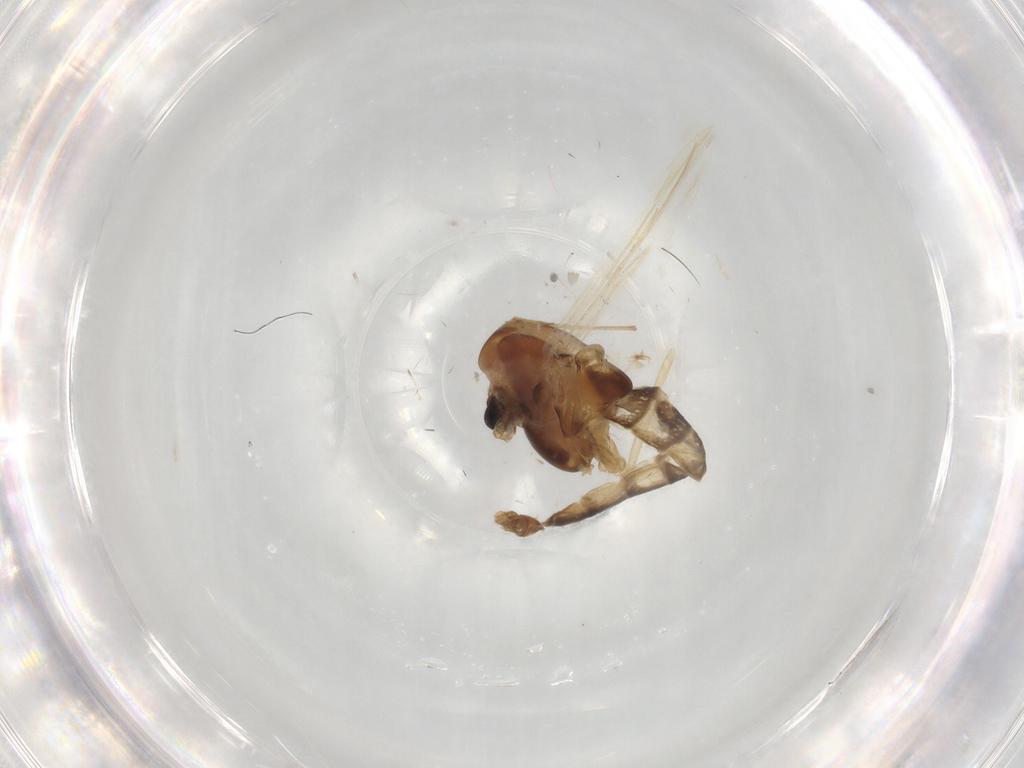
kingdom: Animalia
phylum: Arthropoda
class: Insecta
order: Diptera
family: Chironomidae
